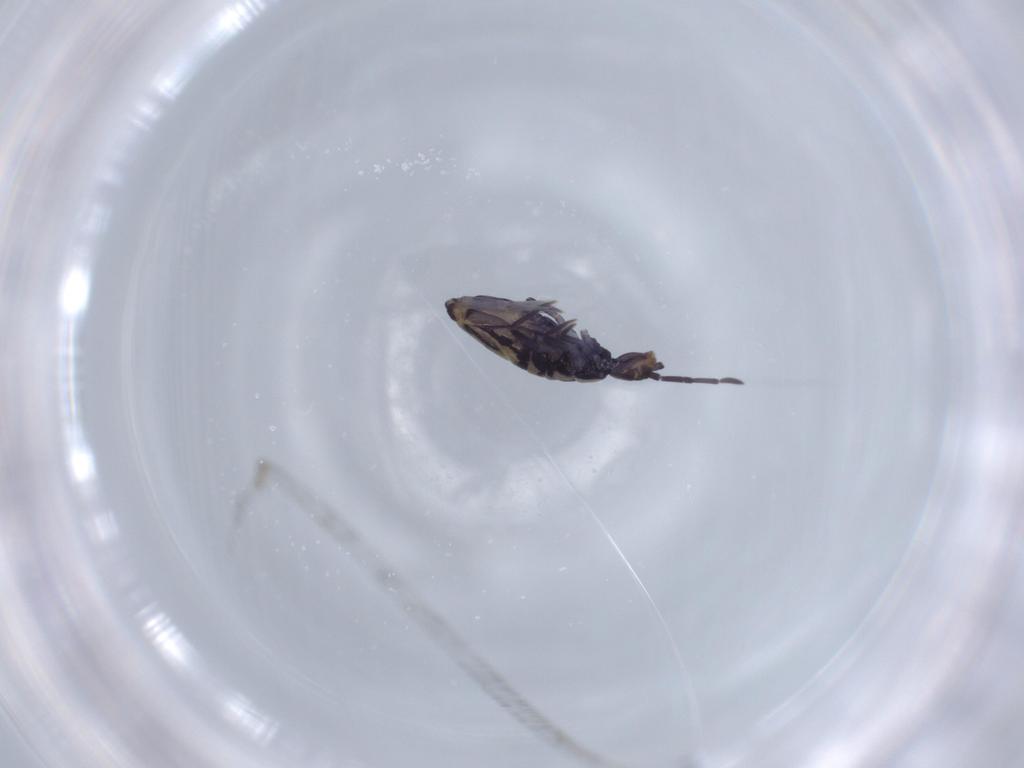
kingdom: Animalia
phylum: Arthropoda
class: Collembola
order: Entomobryomorpha
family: Entomobryidae
